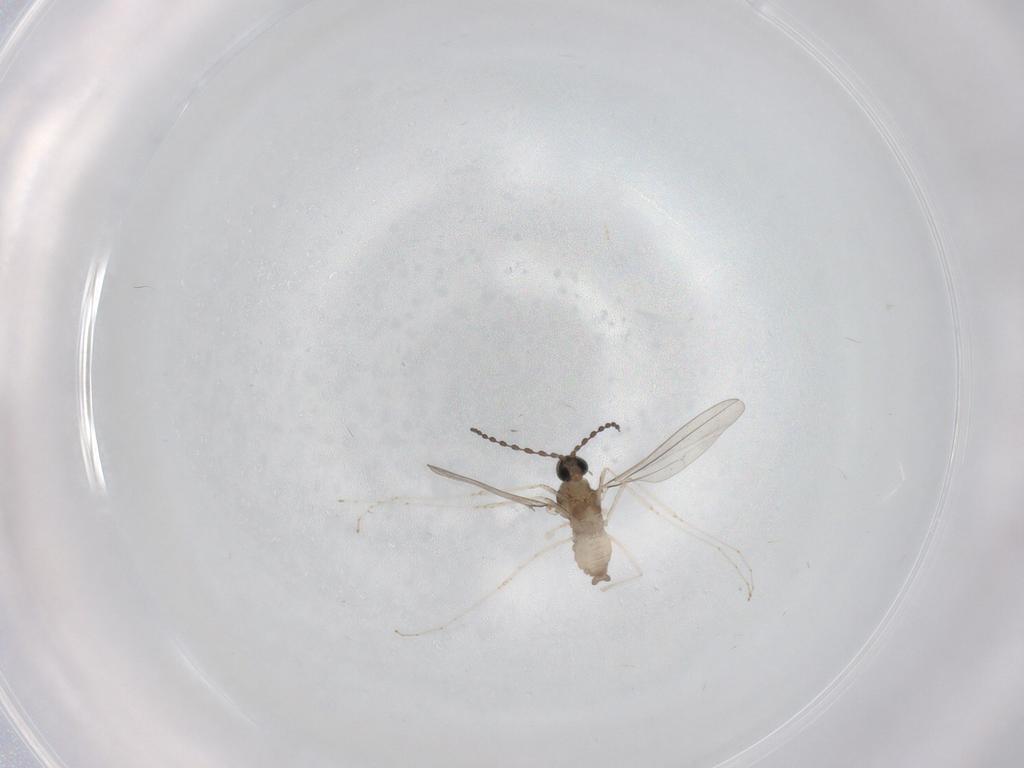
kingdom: Animalia
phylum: Arthropoda
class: Insecta
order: Diptera
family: Cecidomyiidae
